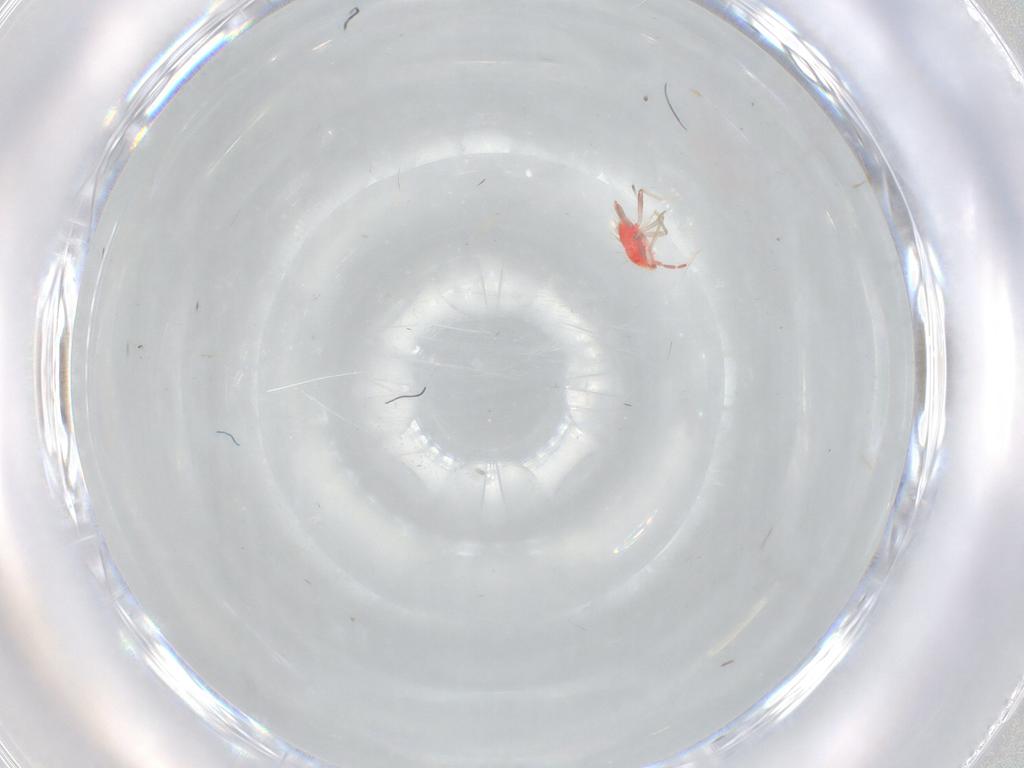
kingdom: Animalia
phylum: Arthropoda
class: Insecta
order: Hemiptera
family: Miridae
